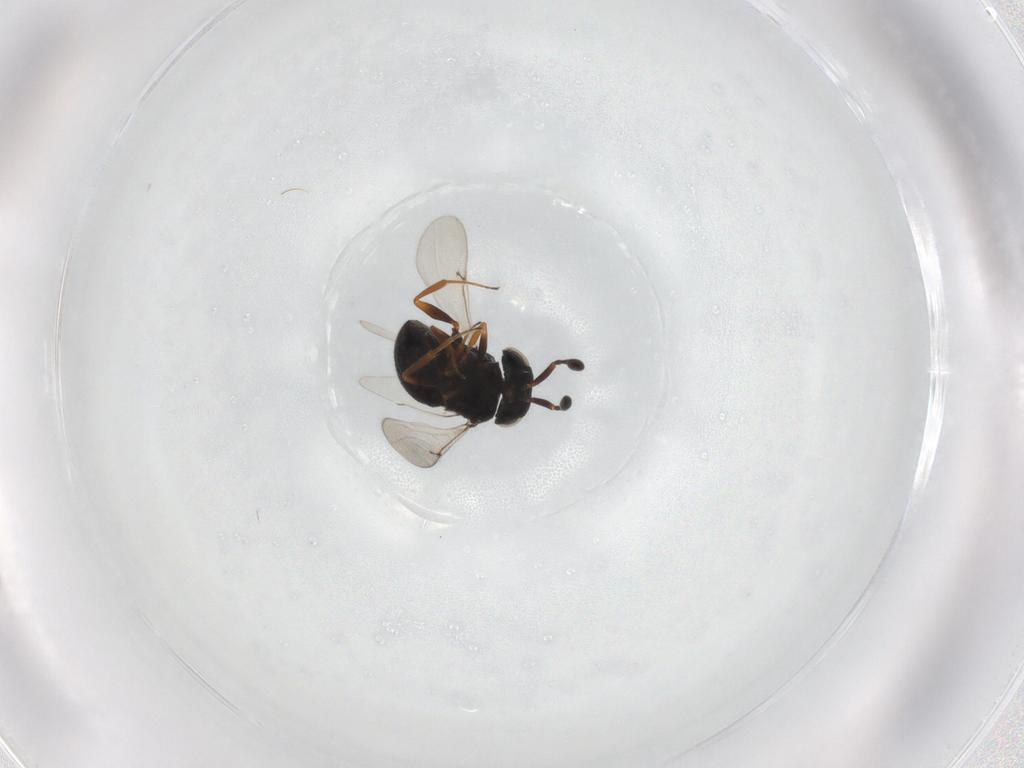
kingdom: Animalia
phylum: Arthropoda
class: Insecta
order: Hymenoptera
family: Scelionidae
